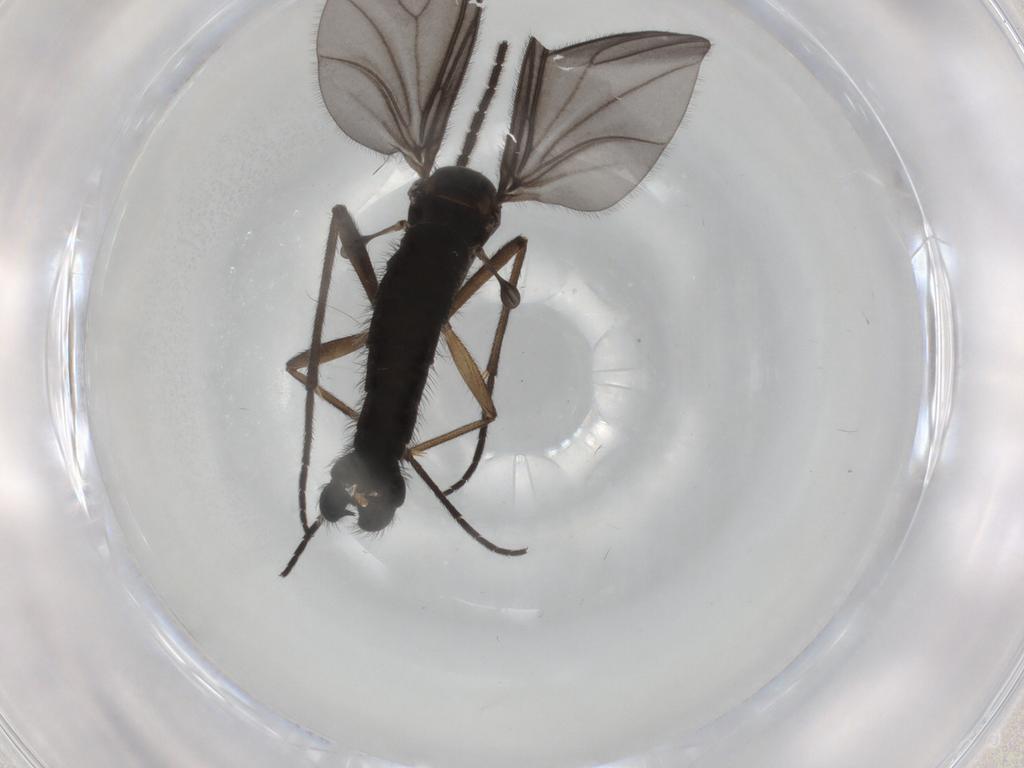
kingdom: Animalia
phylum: Arthropoda
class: Insecta
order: Diptera
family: Sciaridae
